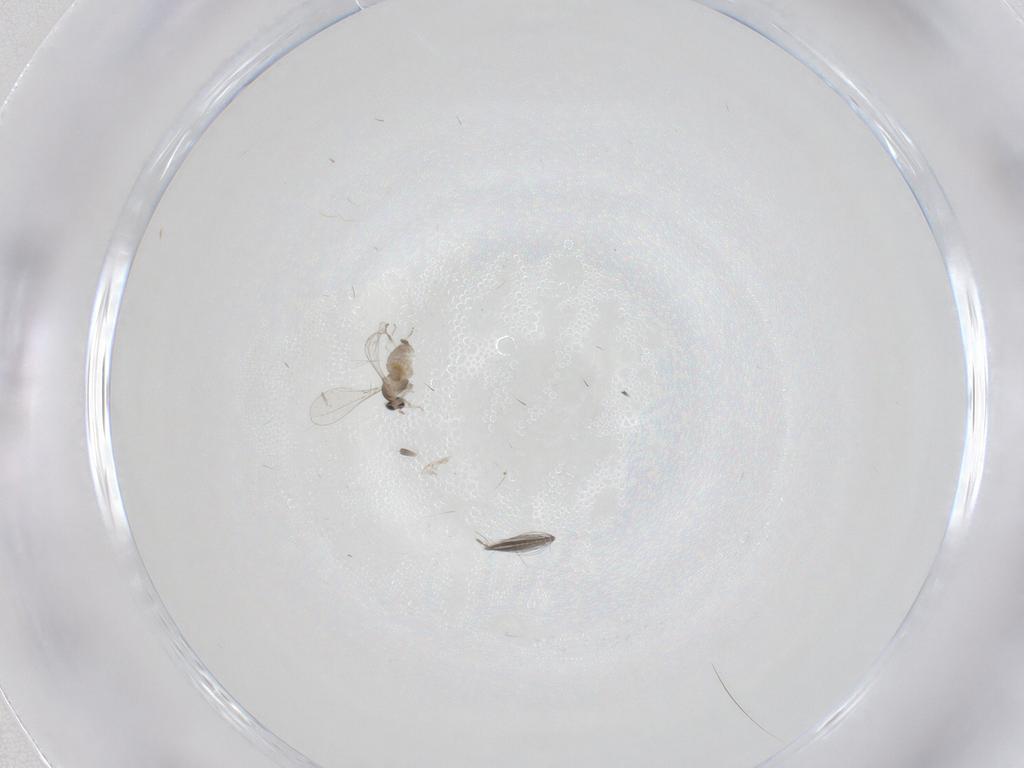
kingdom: Animalia
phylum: Arthropoda
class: Insecta
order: Diptera
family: Cecidomyiidae
